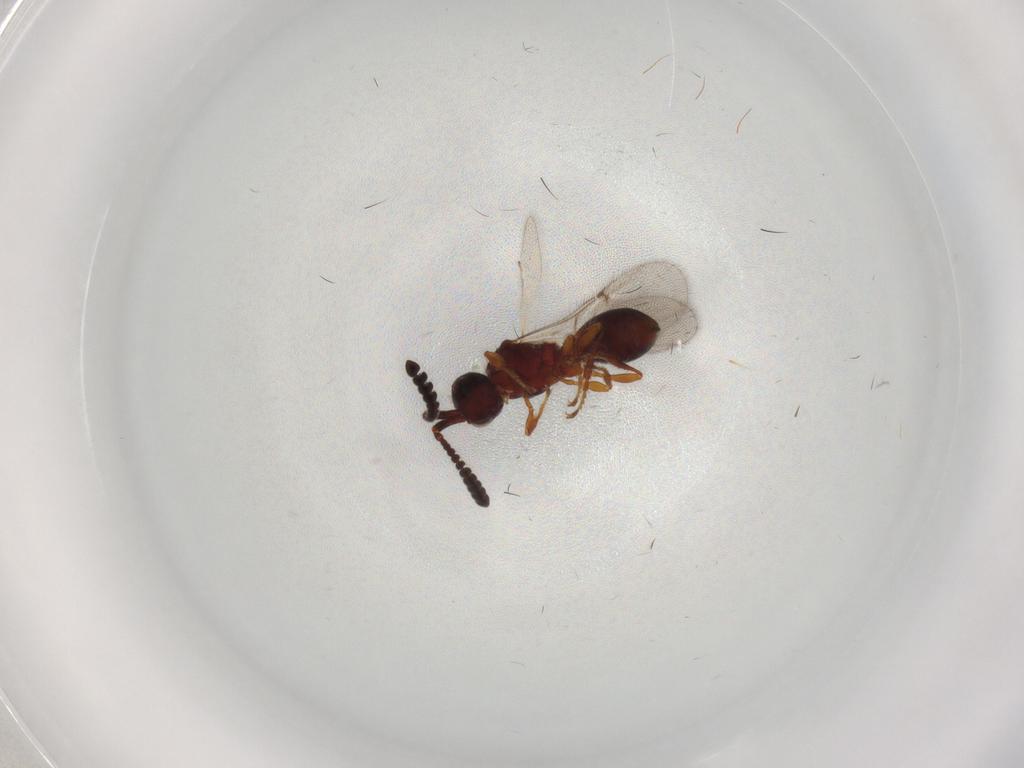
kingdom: Animalia
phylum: Arthropoda
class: Insecta
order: Hymenoptera
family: Diapriidae
